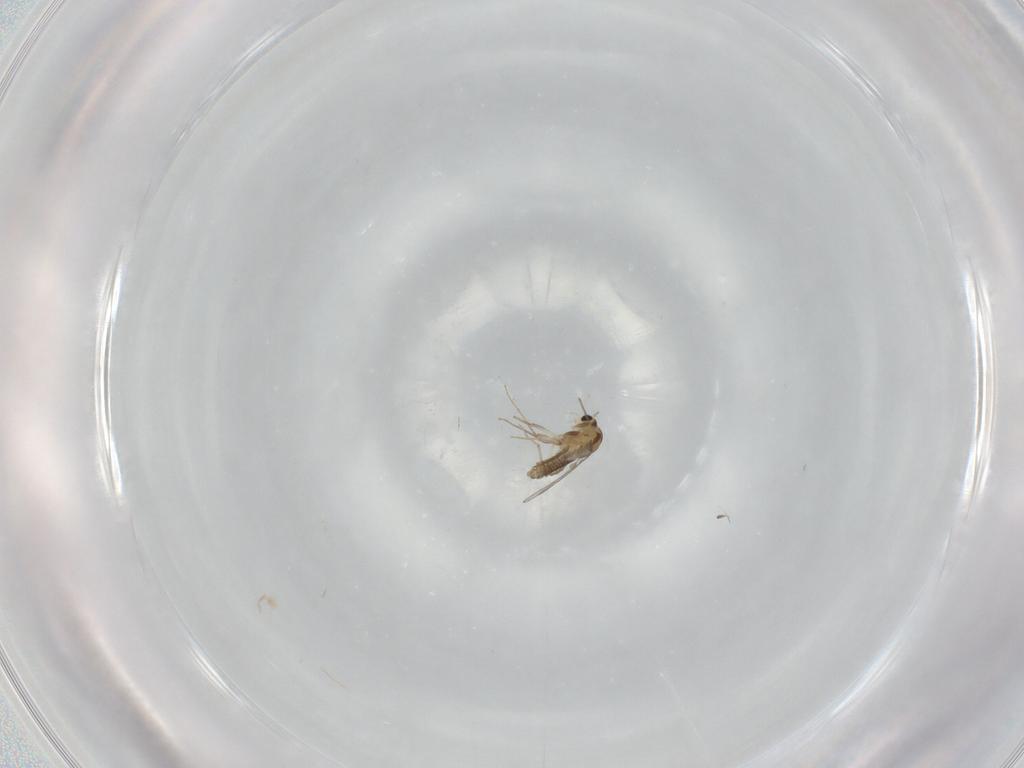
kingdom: Animalia
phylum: Arthropoda
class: Insecta
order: Diptera
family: Chironomidae
